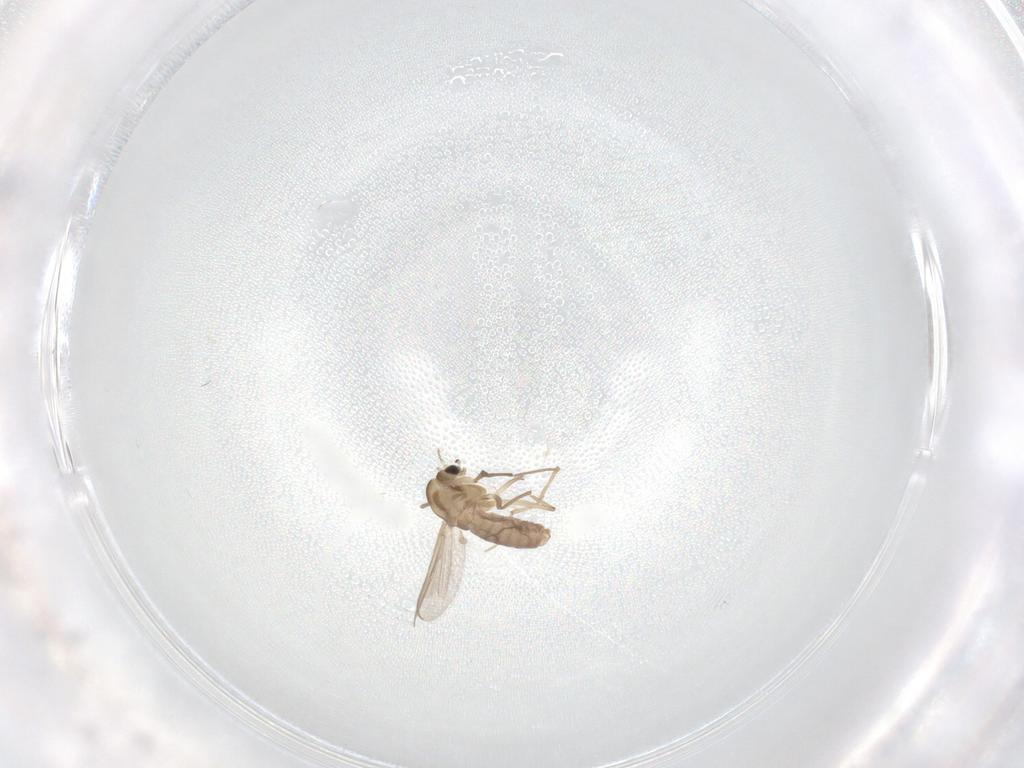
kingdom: Animalia
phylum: Arthropoda
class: Insecta
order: Diptera
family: Chironomidae
